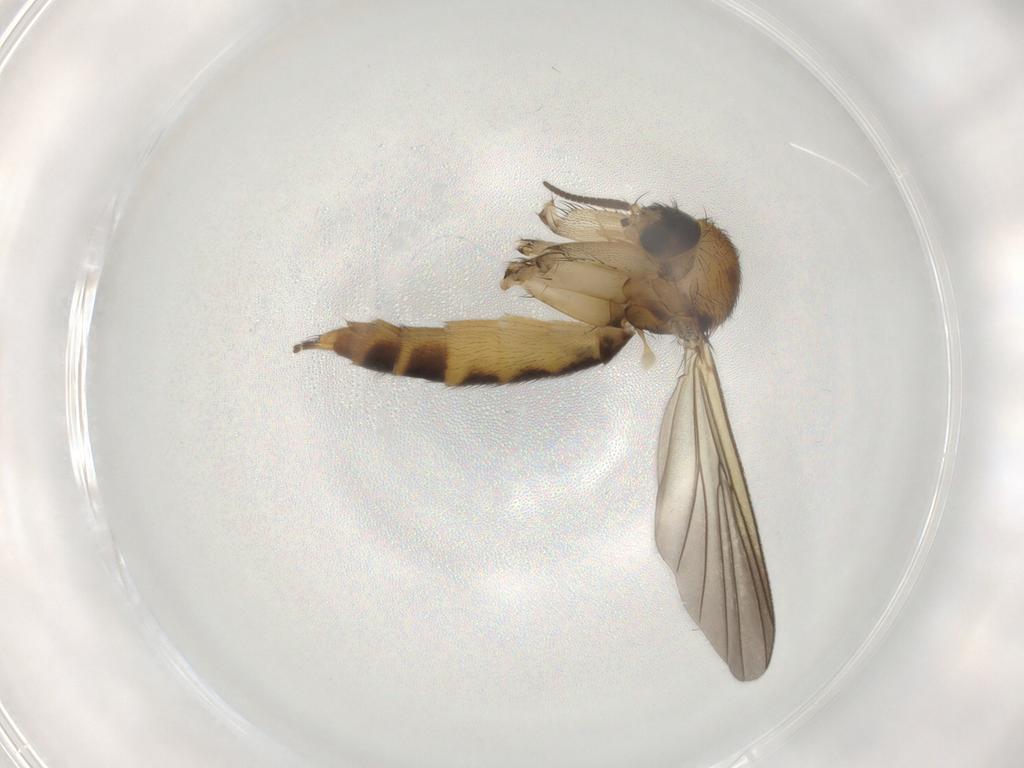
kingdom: Animalia
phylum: Arthropoda
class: Insecta
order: Diptera
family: Mycetophilidae
